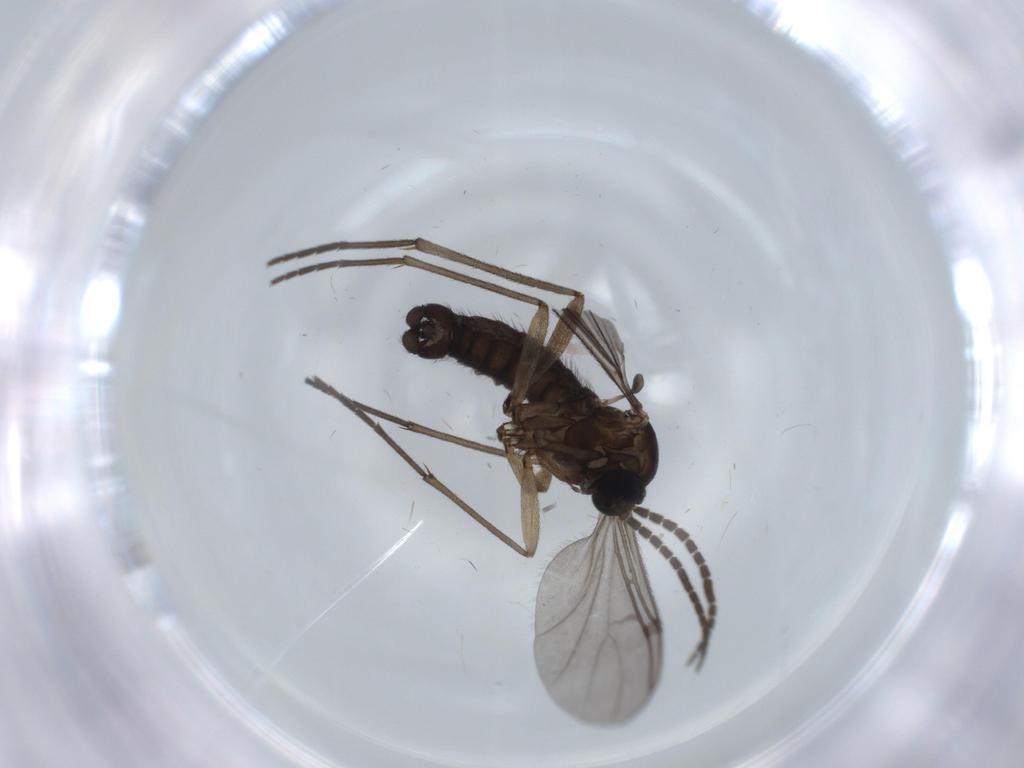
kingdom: Animalia
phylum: Arthropoda
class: Insecta
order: Diptera
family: Sciaridae
